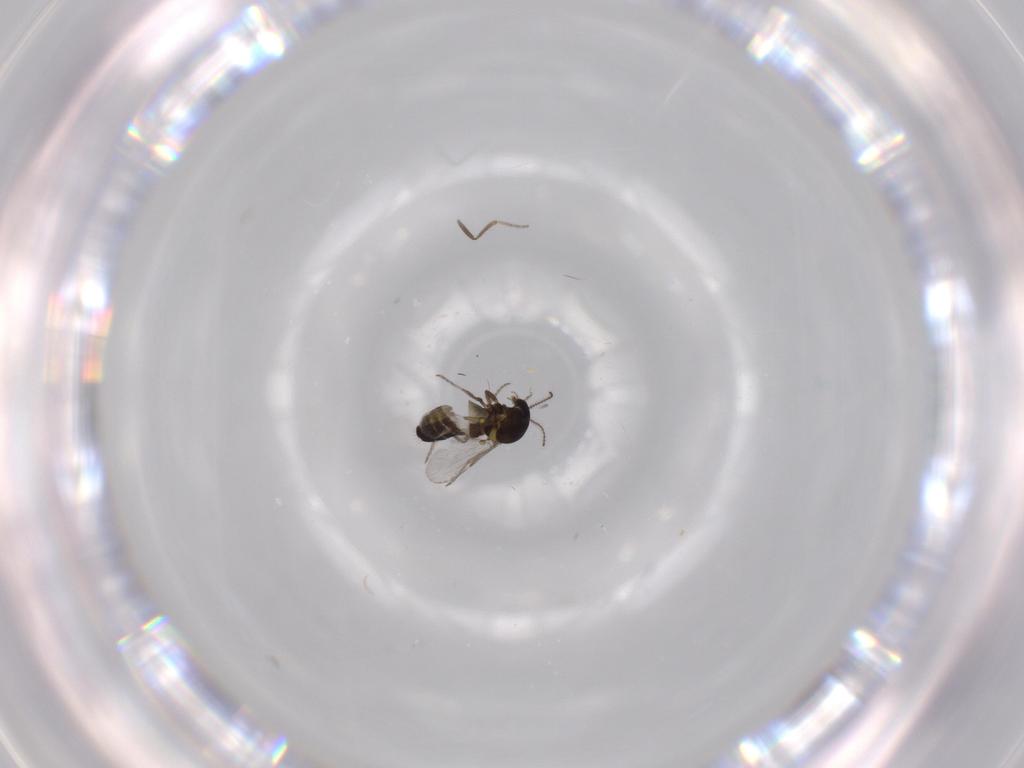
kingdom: Animalia
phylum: Arthropoda
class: Insecta
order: Diptera
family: Ceratopogonidae
